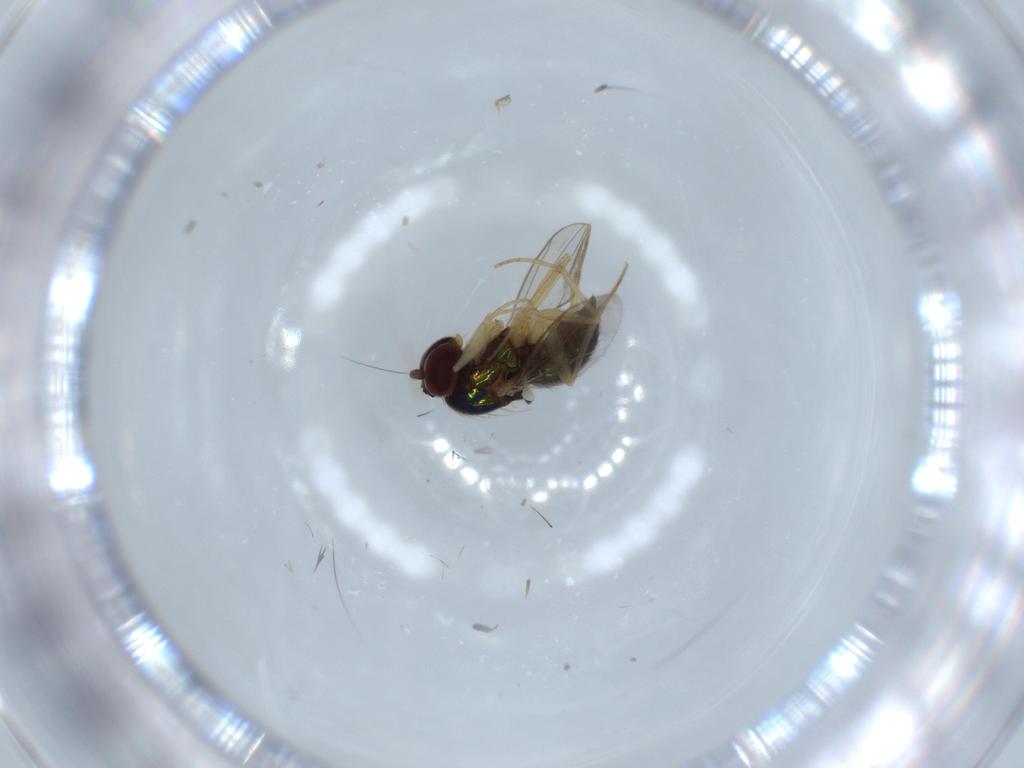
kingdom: Animalia
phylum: Arthropoda
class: Insecta
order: Diptera
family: Dolichopodidae
